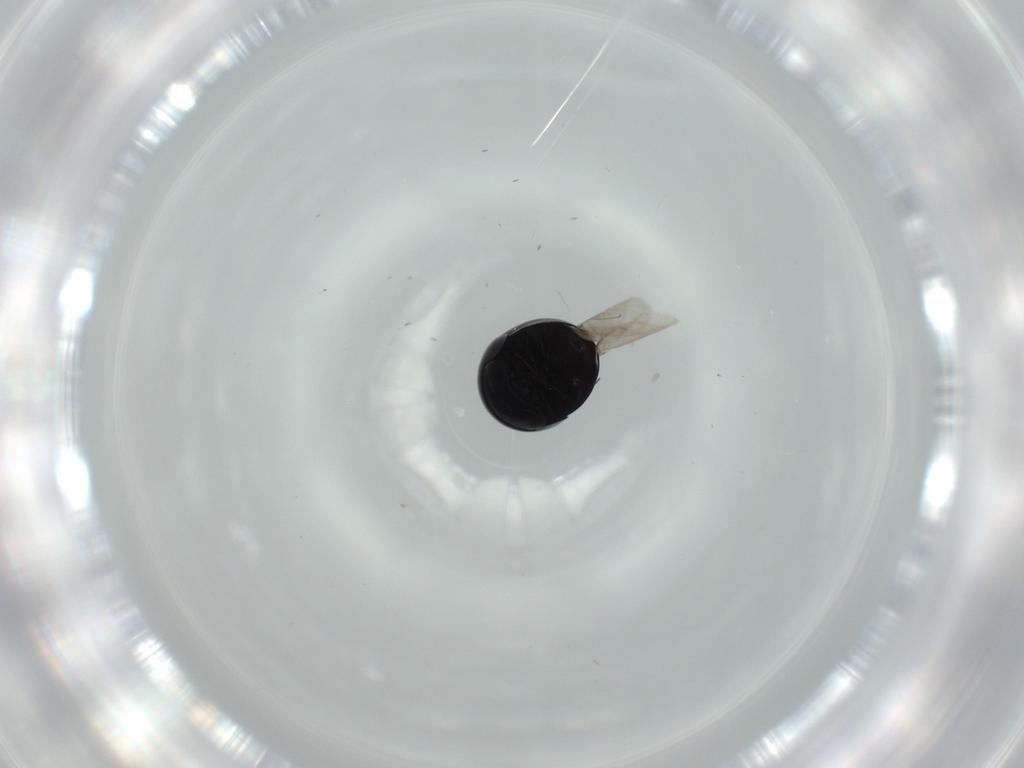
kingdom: Animalia
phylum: Arthropoda
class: Insecta
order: Coleoptera
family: Cybocephalidae
